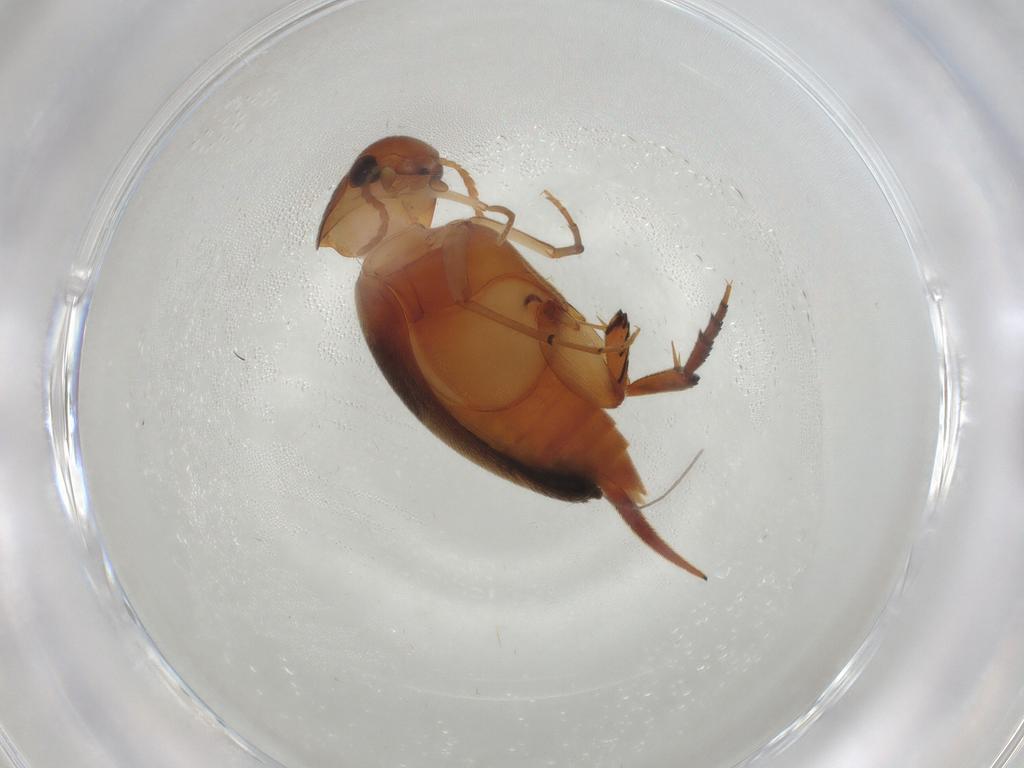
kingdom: Animalia
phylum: Arthropoda
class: Insecta
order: Coleoptera
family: Mordellidae
